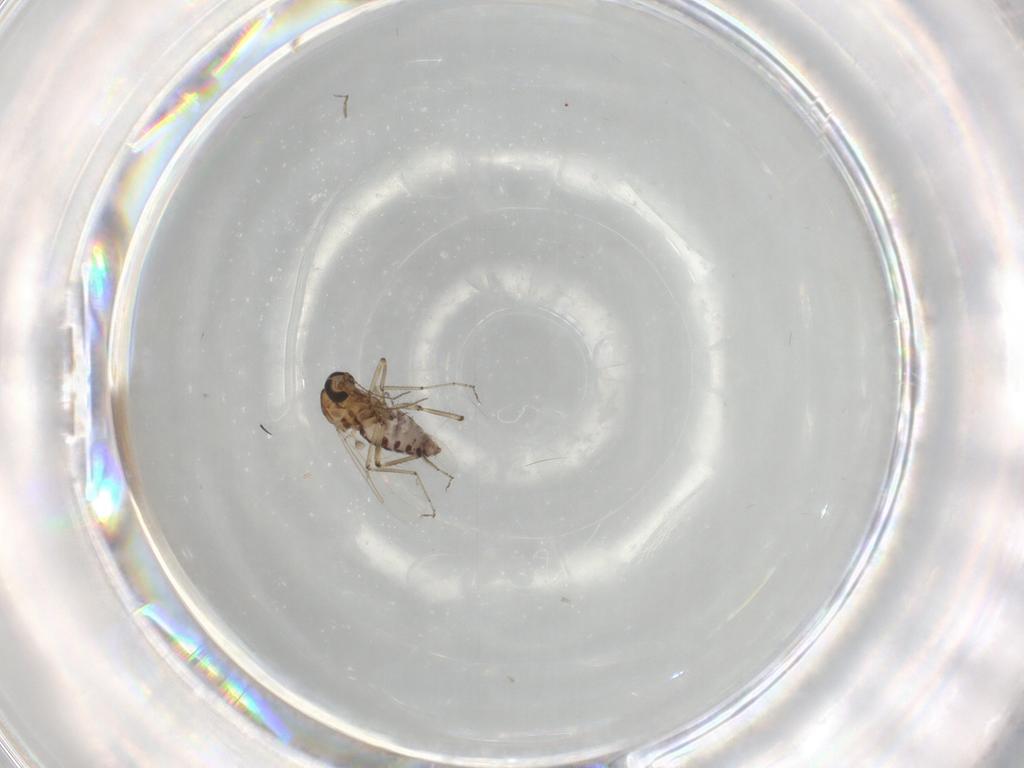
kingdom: Animalia
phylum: Arthropoda
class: Insecta
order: Diptera
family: Ceratopogonidae
